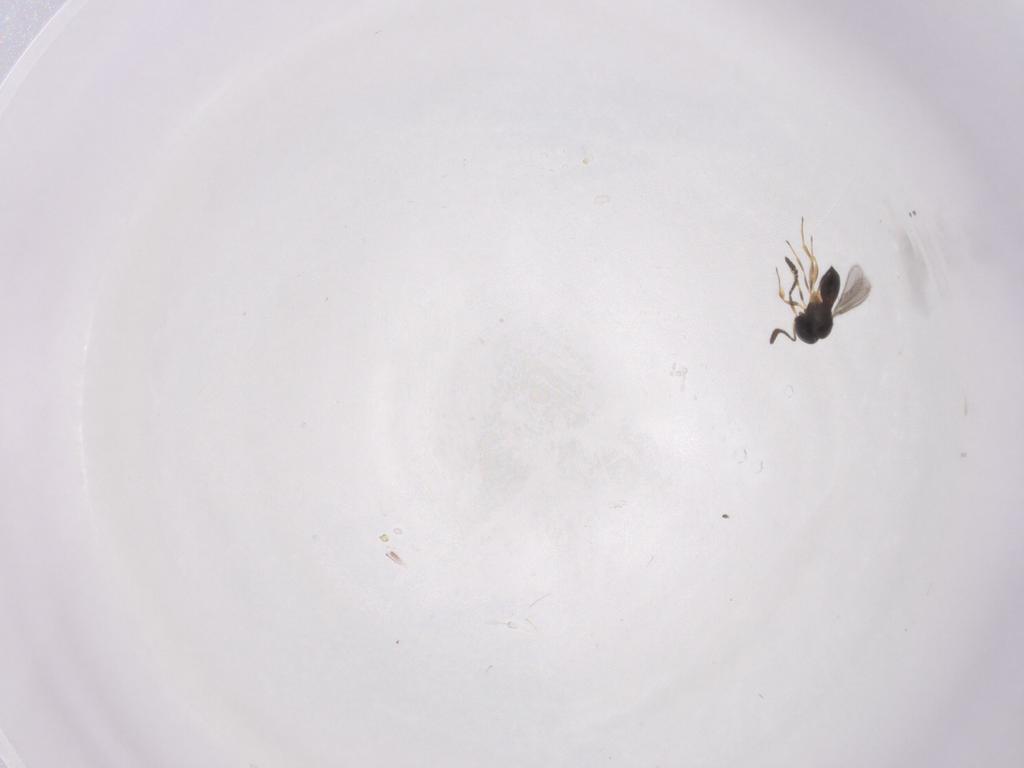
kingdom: Animalia
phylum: Arthropoda
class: Insecta
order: Hymenoptera
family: Scelionidae
